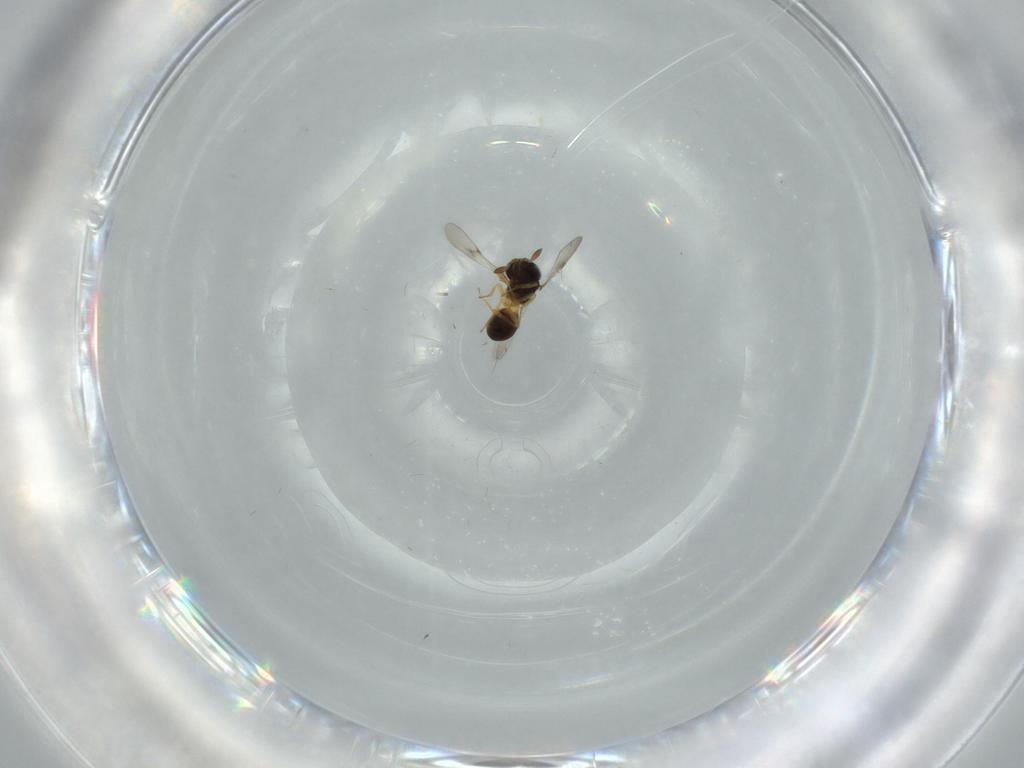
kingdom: Animalia
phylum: Arthropoda
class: Insecta
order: Hymenoptera
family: Scelionidae
